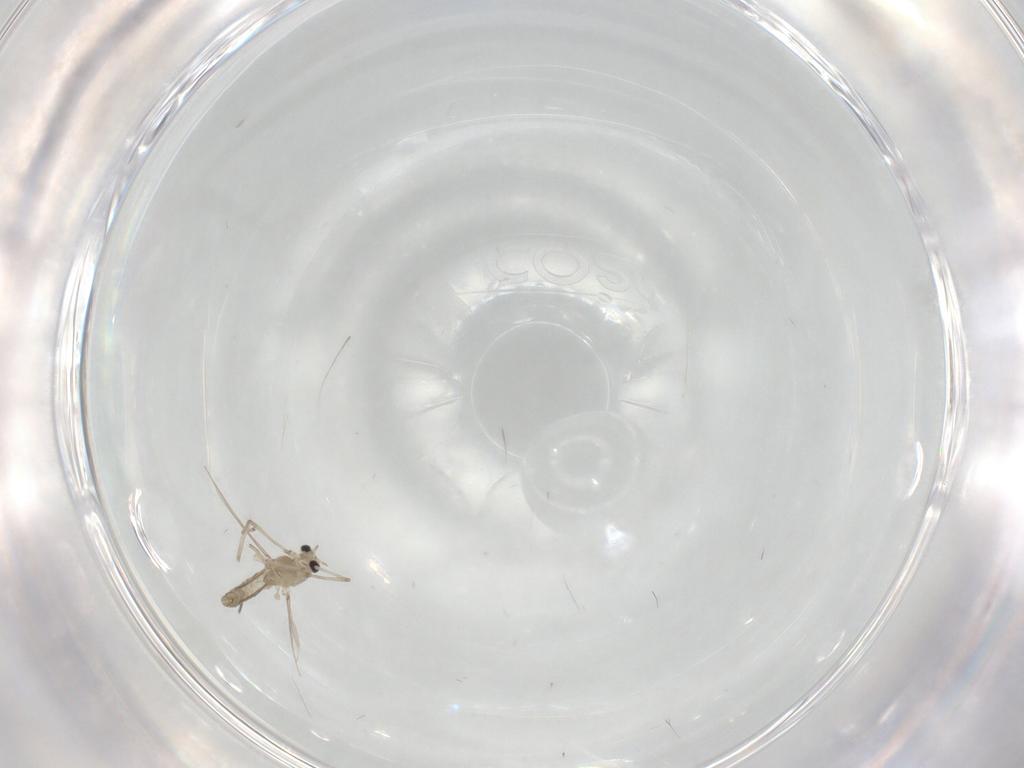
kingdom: Animalia
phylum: Arthropoda
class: Insecta
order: Diptera
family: Chironomidae
